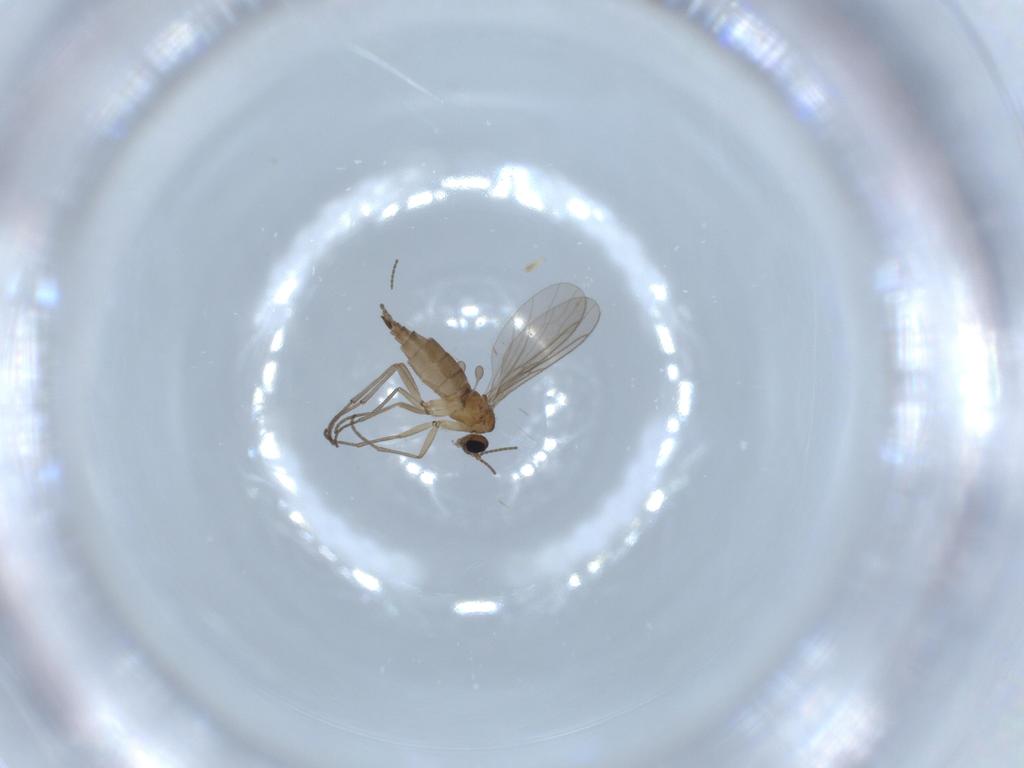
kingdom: Animalia
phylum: Arthropoda
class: Insecta
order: Diptera
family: Sciaridae
